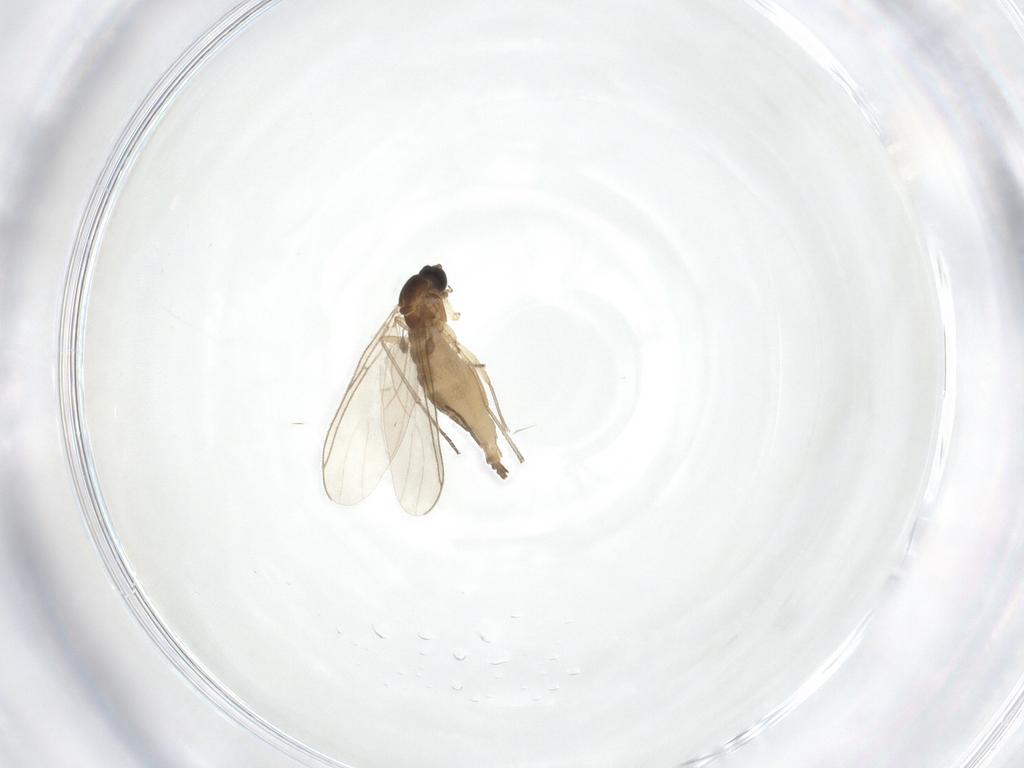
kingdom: Animalia
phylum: Arthropoda
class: Insecta
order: Diptera
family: Sciaridae
